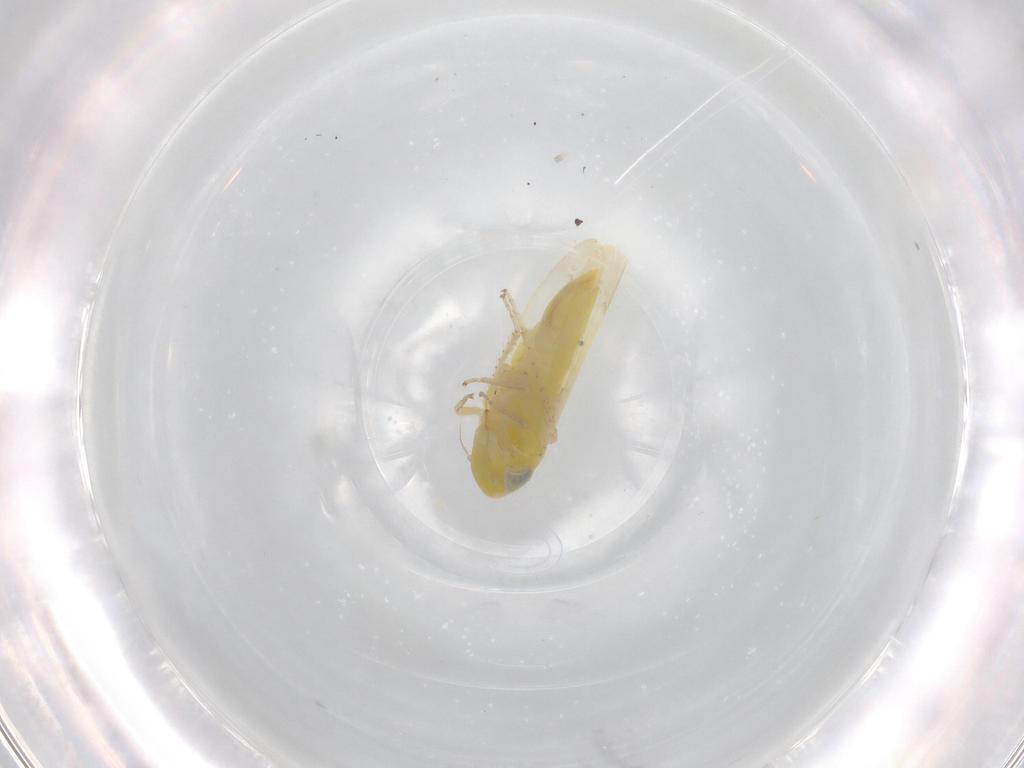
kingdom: Animalia
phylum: Arthropoda
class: Insecta
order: Hemiptera
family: Cicadellidae
